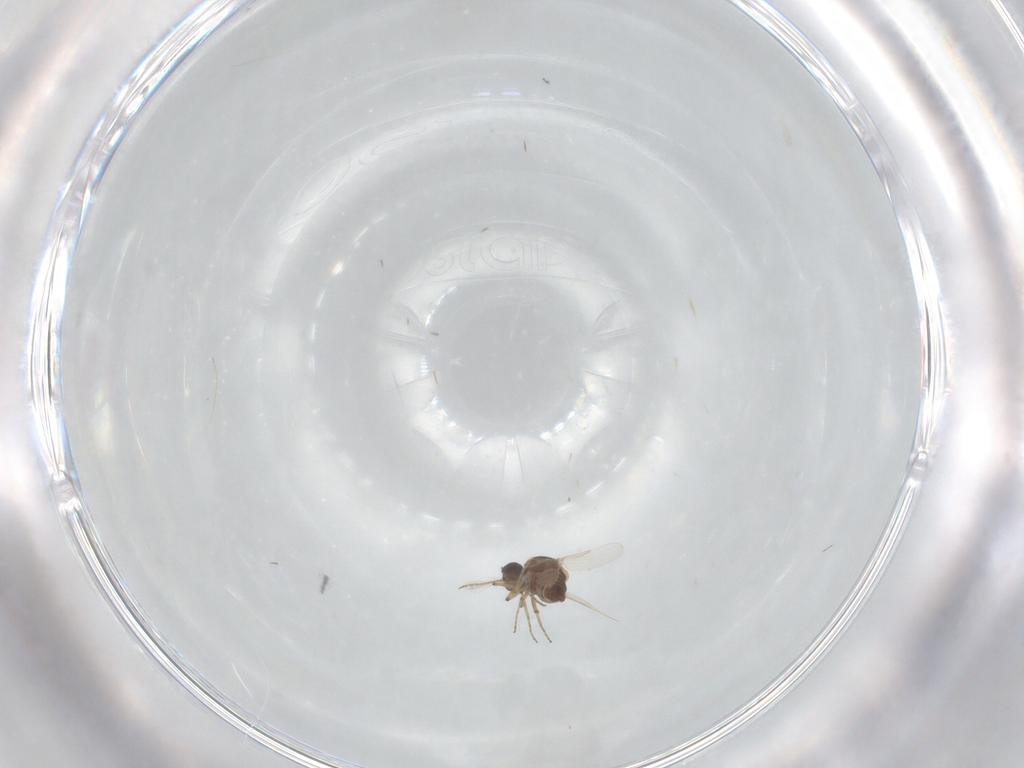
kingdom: Animalia
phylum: Arthropoda
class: Insecta
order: Diptera
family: Ceratopogonidae
